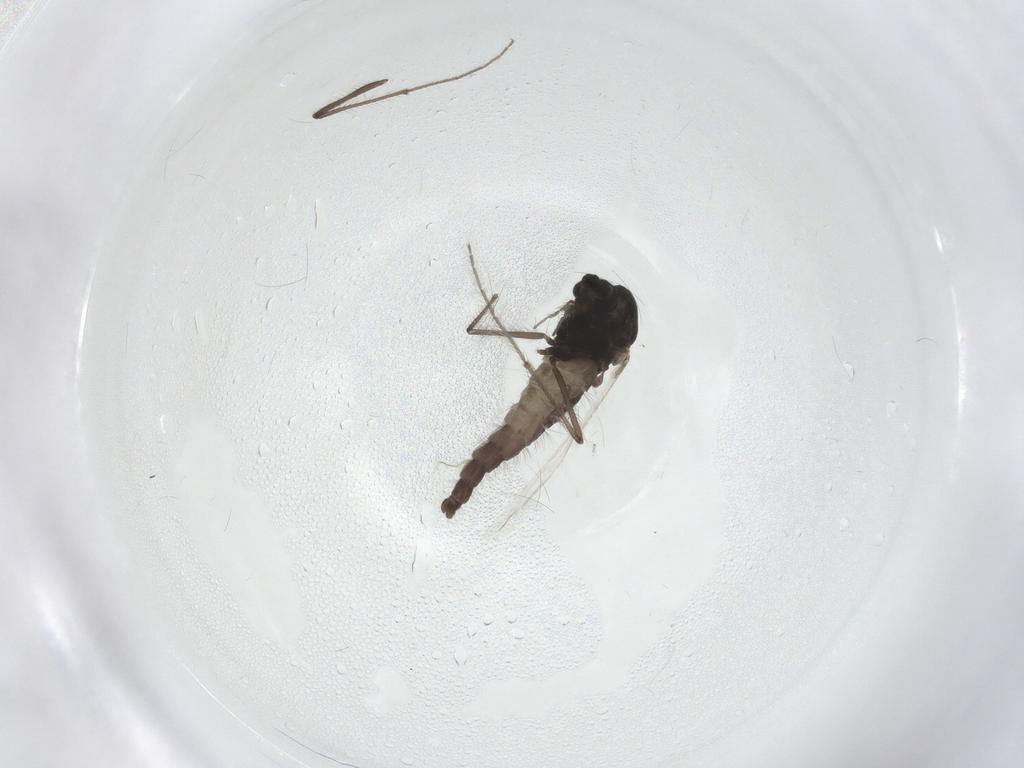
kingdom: Animalia
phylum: Arthropoda
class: Insecta
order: Diptera
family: Chironomidae
